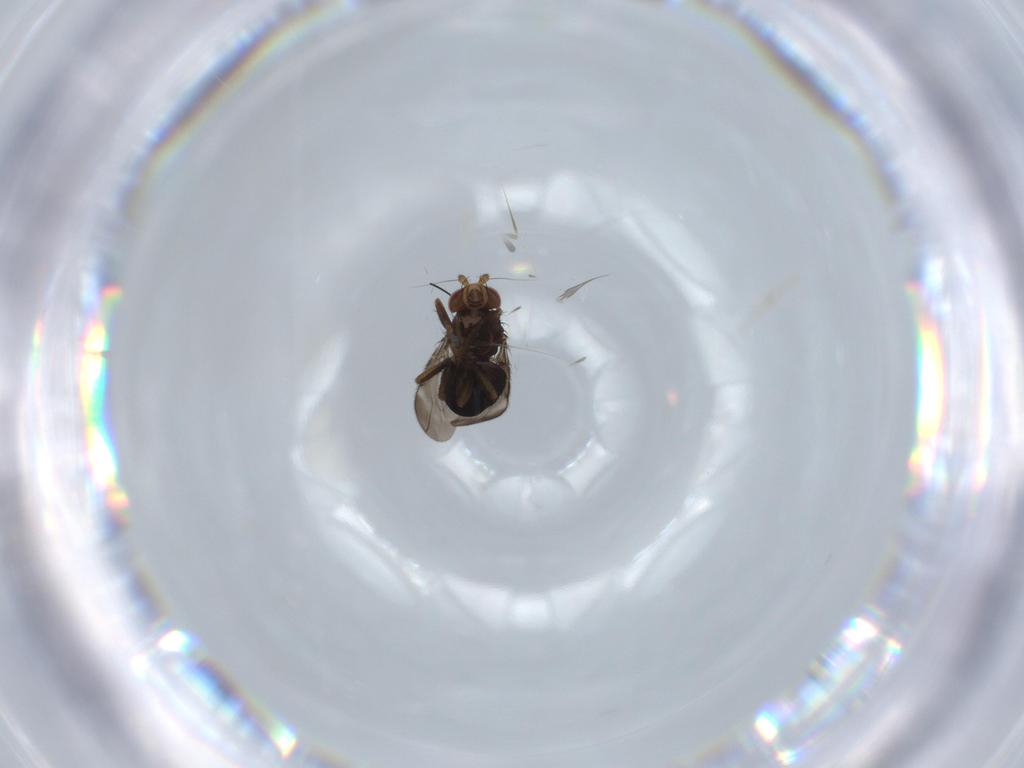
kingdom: Animalia
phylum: Arthropoda
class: Insecta
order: Diptera
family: Sphaeroceridae
